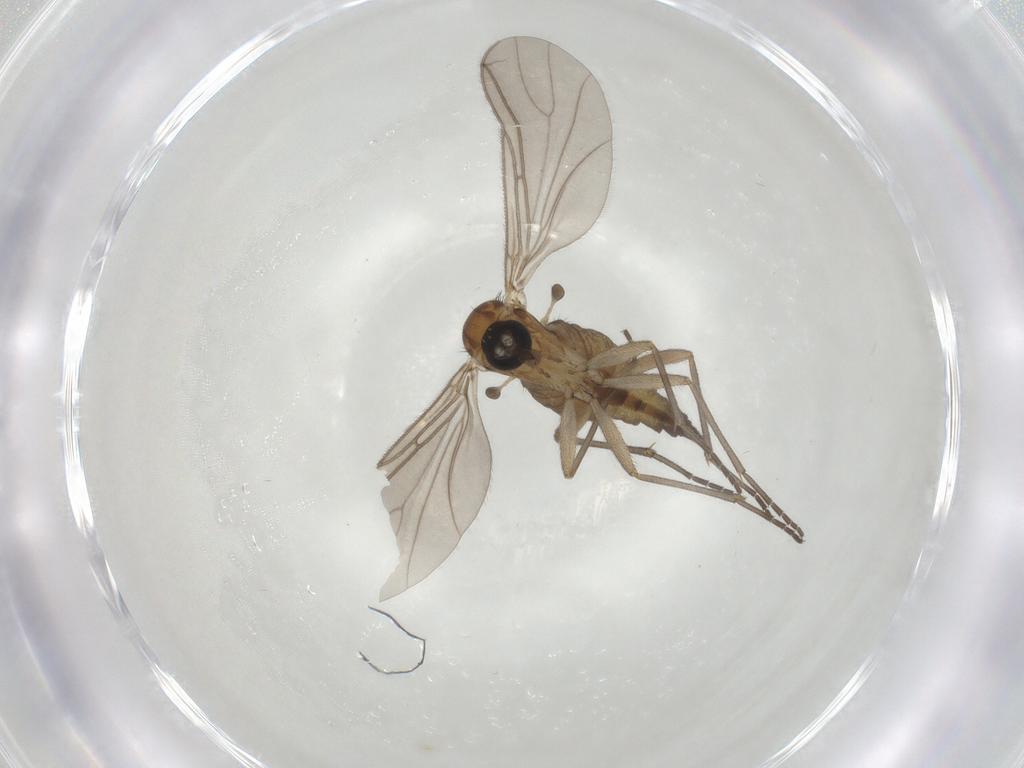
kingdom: Animalia
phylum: Arthropoda
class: Insecta
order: Diptera
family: Sciaridae
